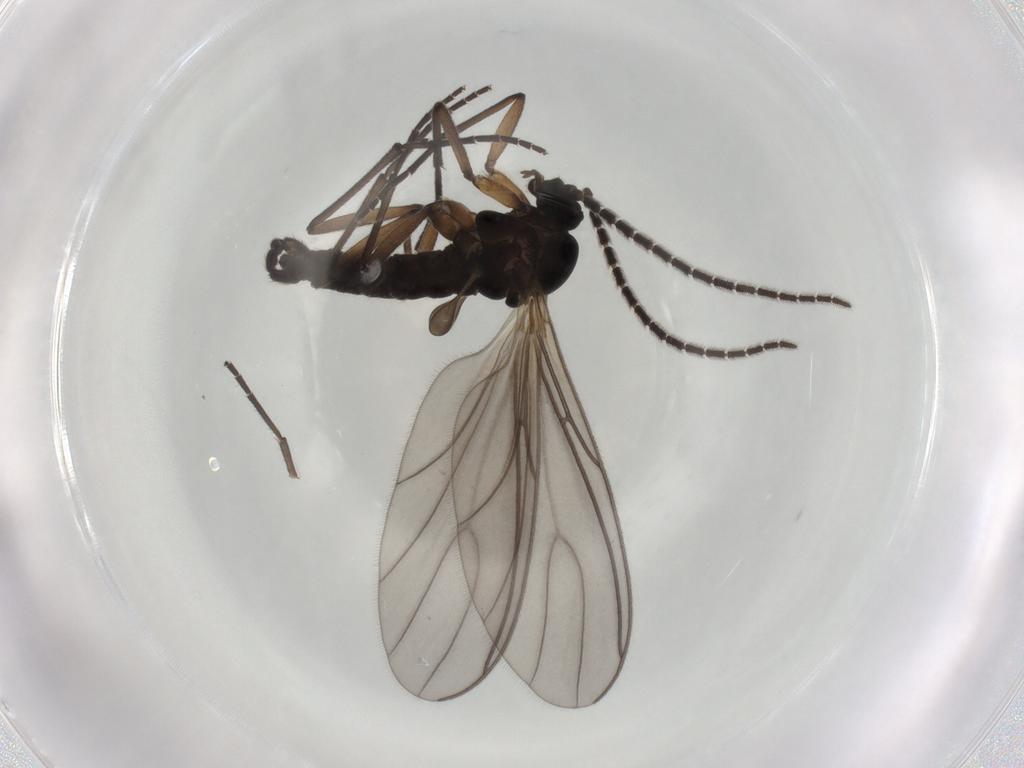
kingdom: Animalia
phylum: Arthropoda
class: Insecta
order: Diptera
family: Sciaridae
